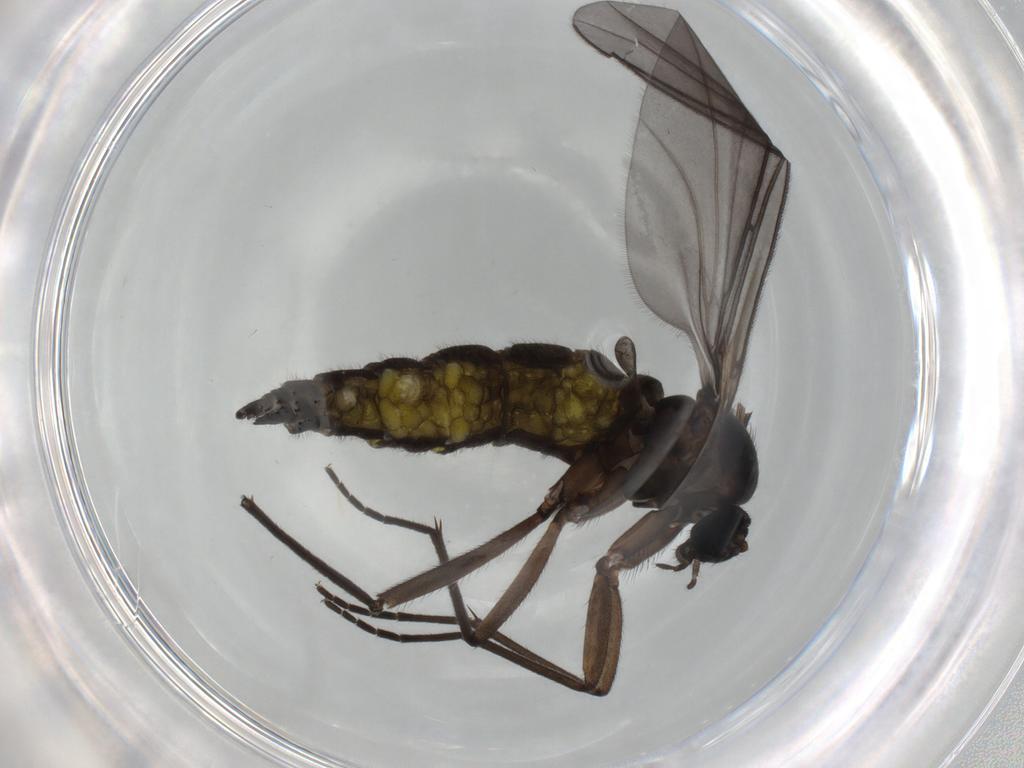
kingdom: Animalia
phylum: Arthropoda
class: Insecta
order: Diptera
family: Sciaridae
